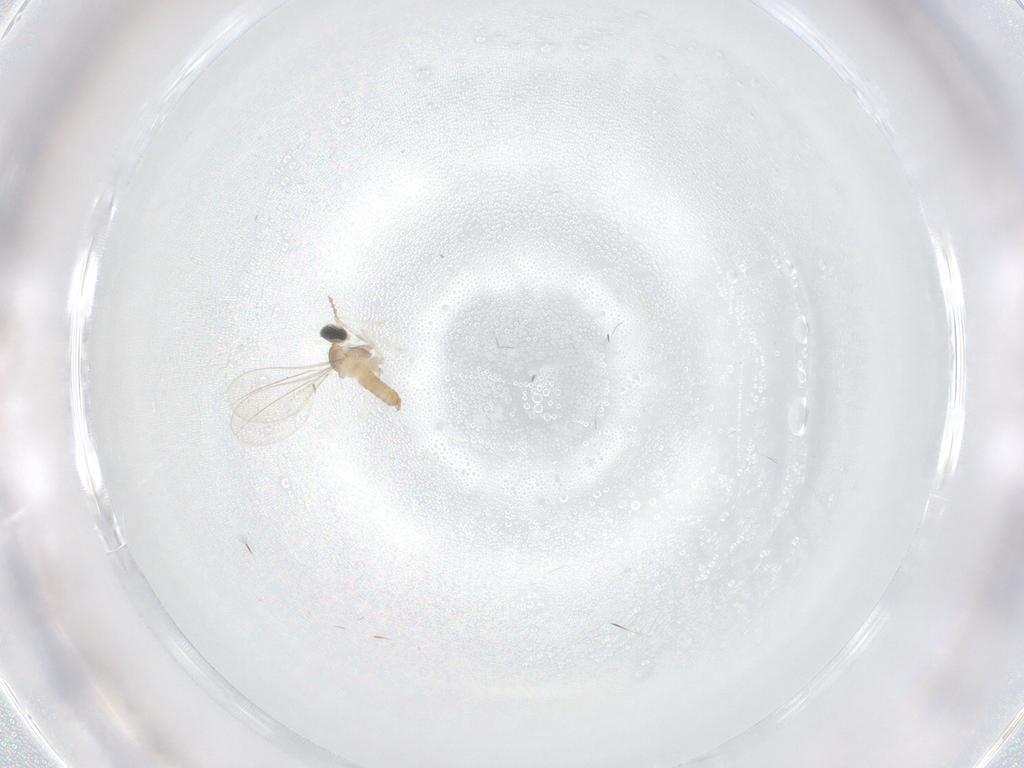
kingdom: Animalia
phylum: Arthropoda
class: Insecta
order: Diptera
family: Cecidomyiidae
